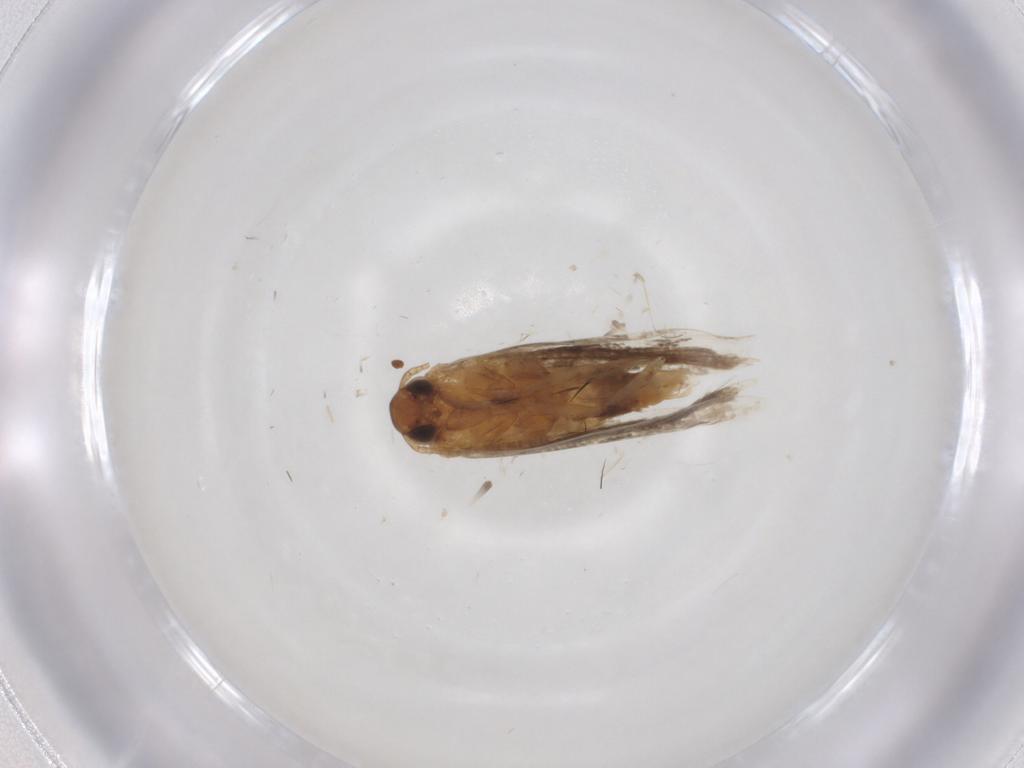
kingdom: Animalia
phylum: Arthropoda
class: Insecta
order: Lepidoptera
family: Gelechiidae
